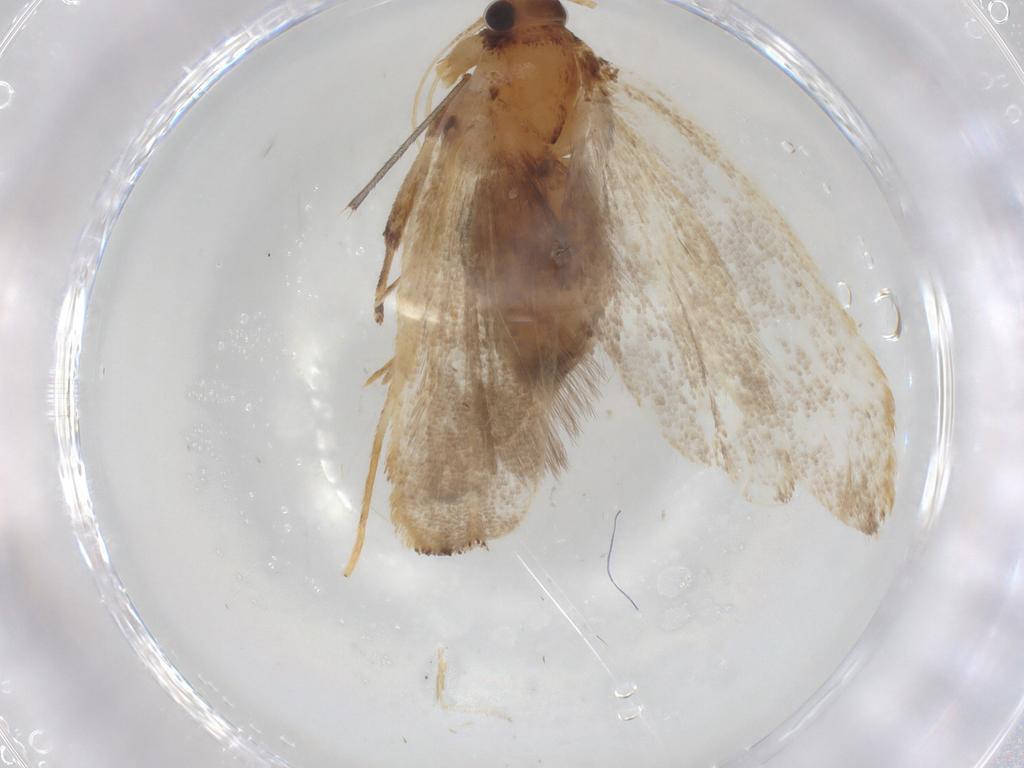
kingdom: Animalia
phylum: Arthropoda
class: Insecta
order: Lepidoptera
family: Lecithoceridae
